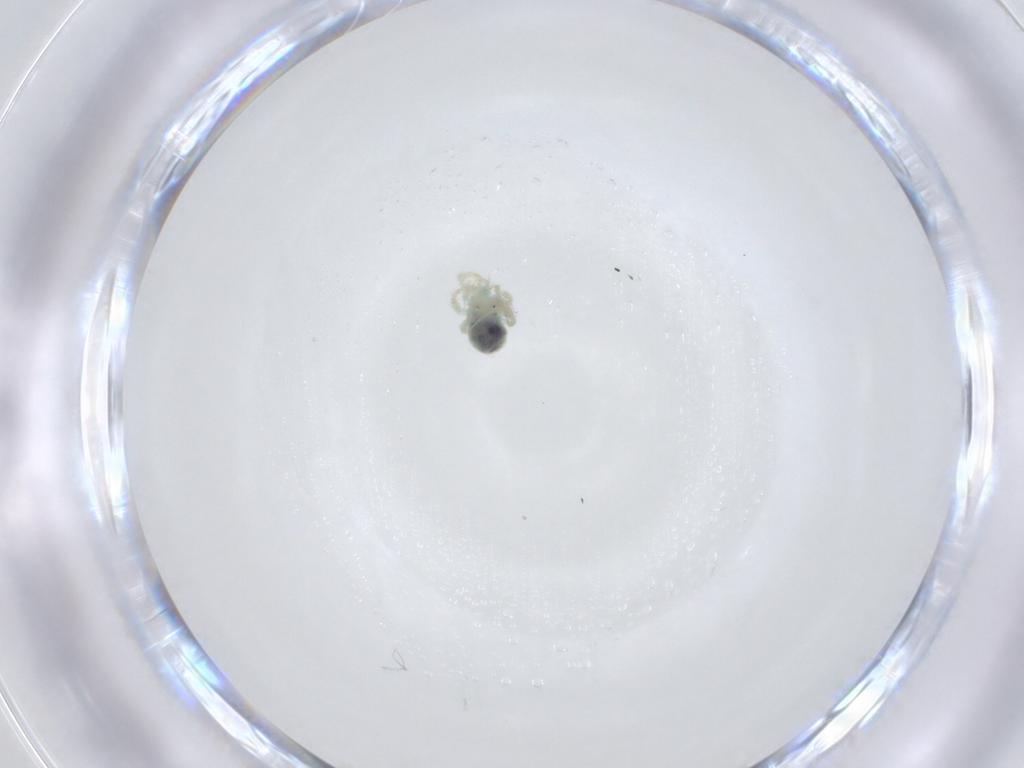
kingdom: Animalia
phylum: Arthropoda
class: Arachnida
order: Trombidiformes
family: Erythracaridae
